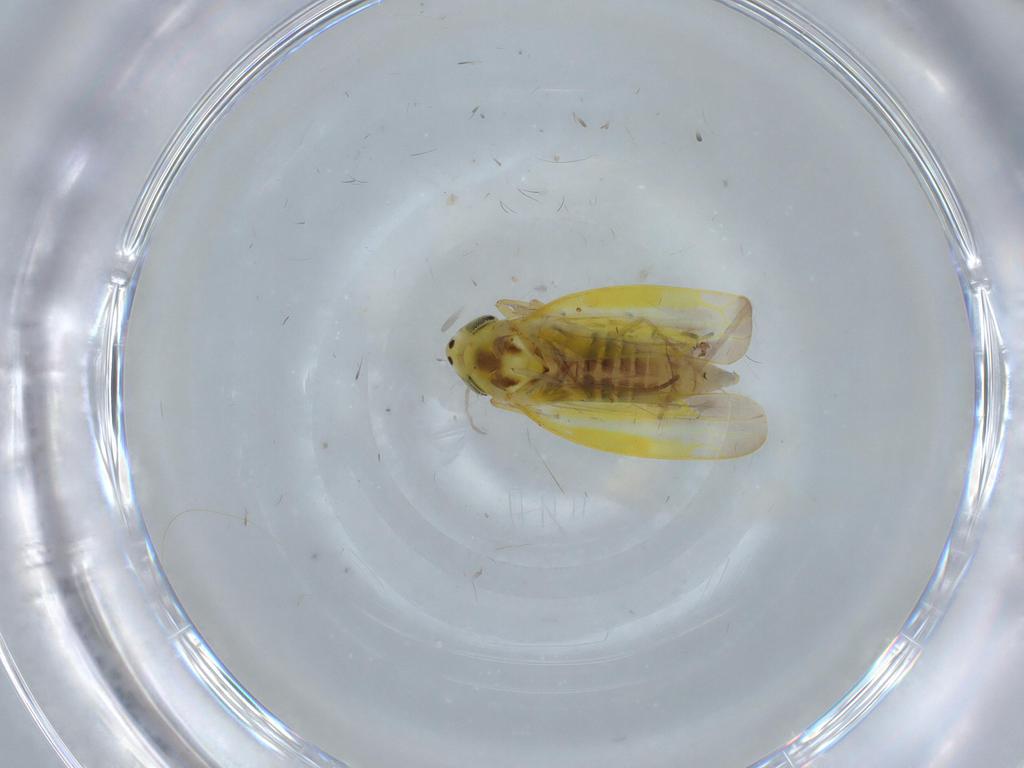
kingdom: Animalia
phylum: Arthropoda
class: Insecta
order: Hemiptera
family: Cicadellidae
